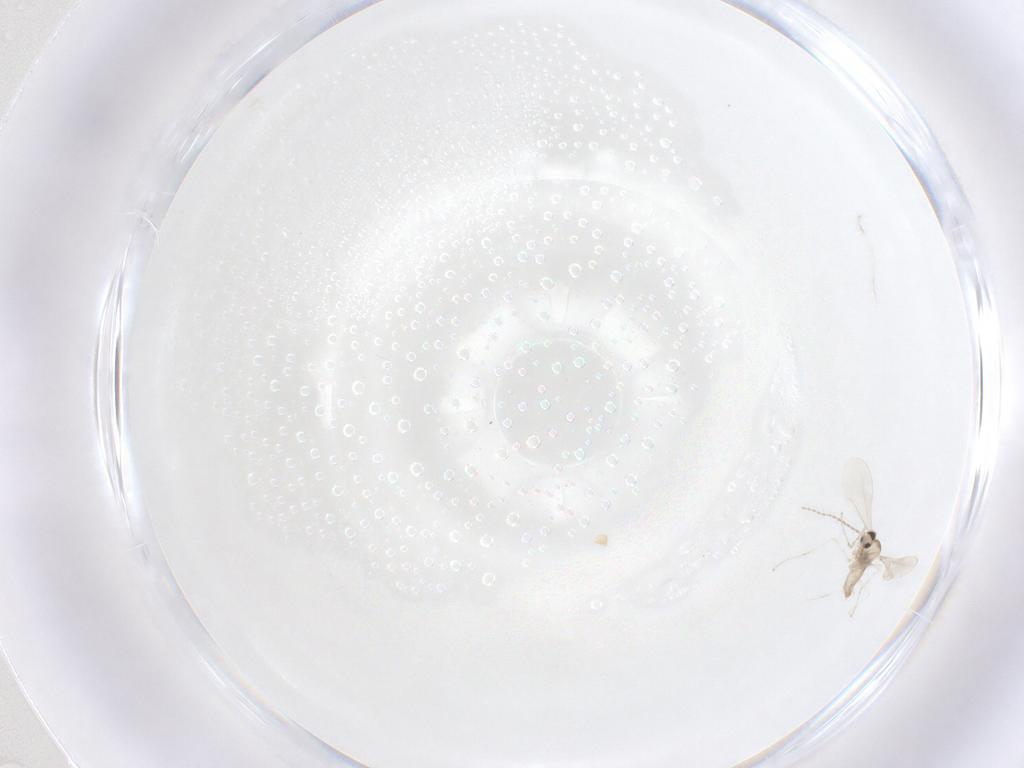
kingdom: Animalia
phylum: Arthropoda
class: Insecta
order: Diptera
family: Cecidomyiidae
